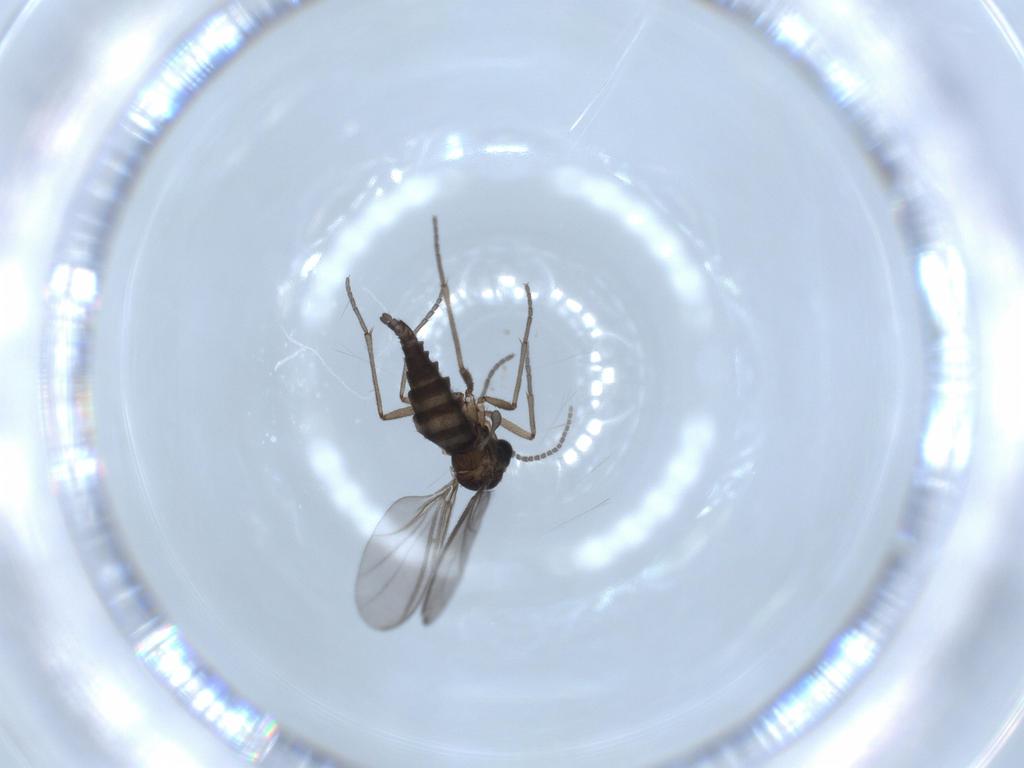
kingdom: Animalia
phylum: Arthropoda
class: Insecta
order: Diptera
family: Sciaridae
